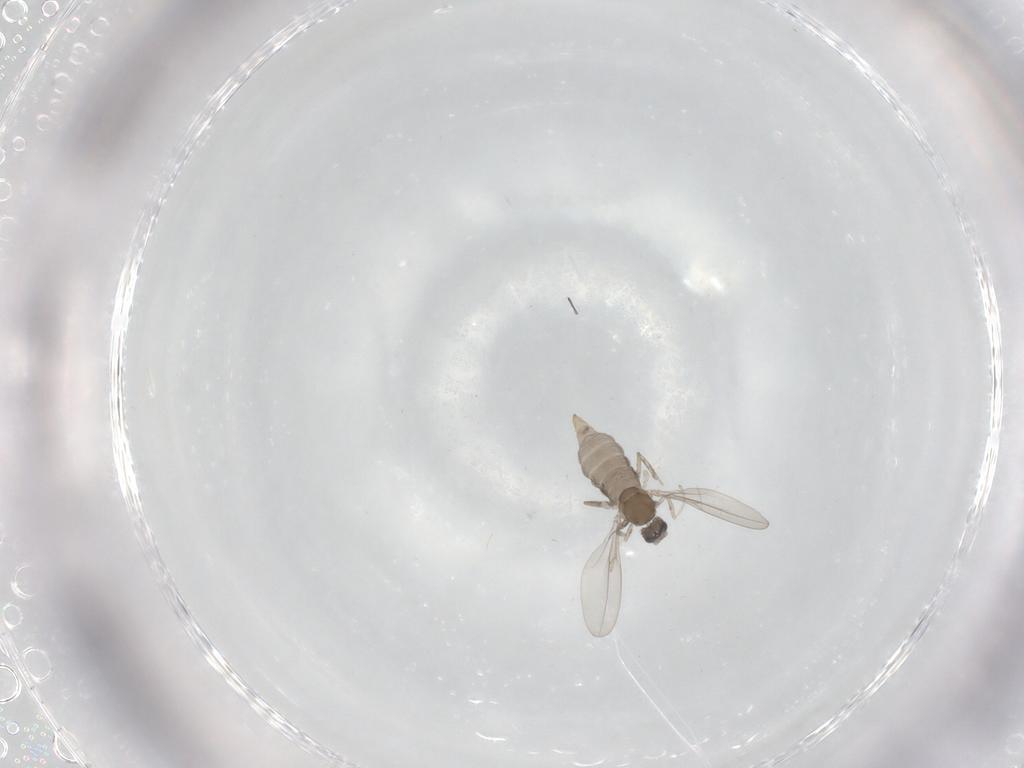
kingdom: Animalia
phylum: Arthropoda
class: Insecta
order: Diptera
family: Cecidomyiidae
